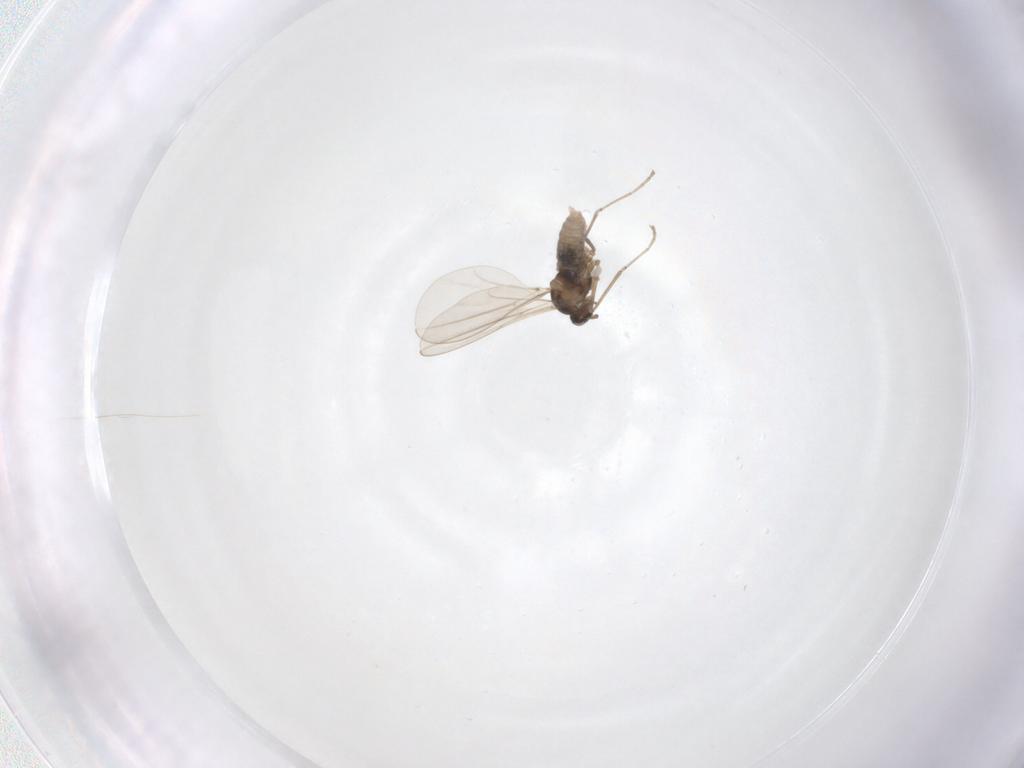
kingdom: Animalia
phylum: Arthropoda
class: Insecta
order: Diptera
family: Cecidomyiidae
